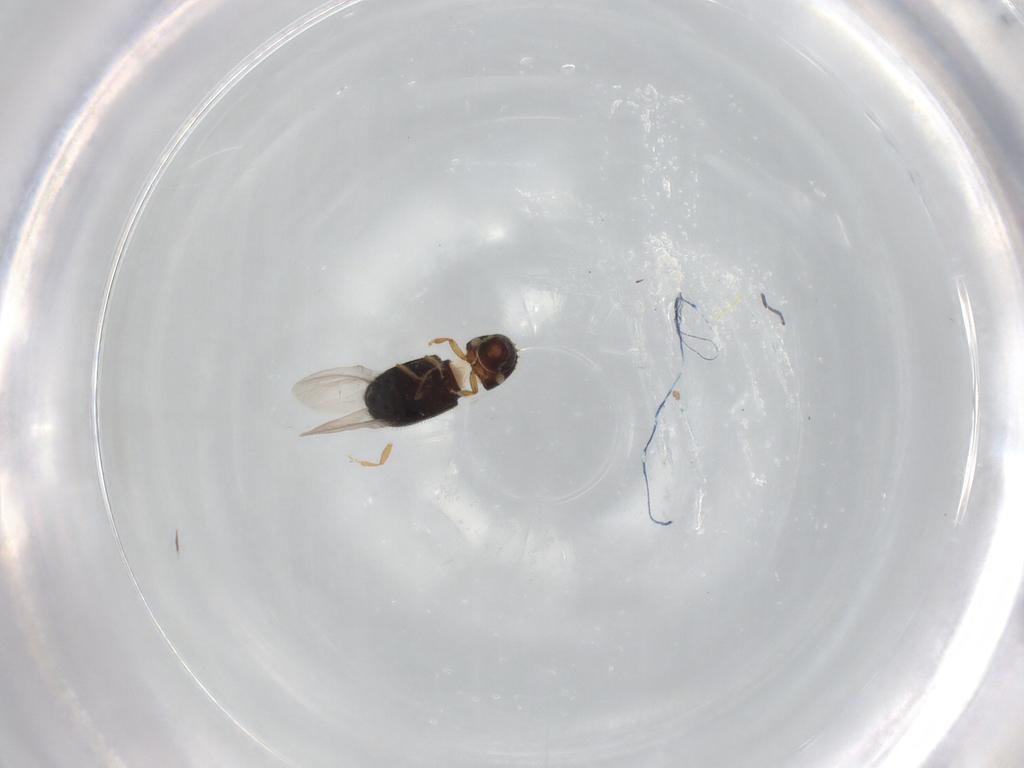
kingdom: Animalia
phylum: Arthropoda
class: Insecta
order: Coleoptera
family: Curculionidae
